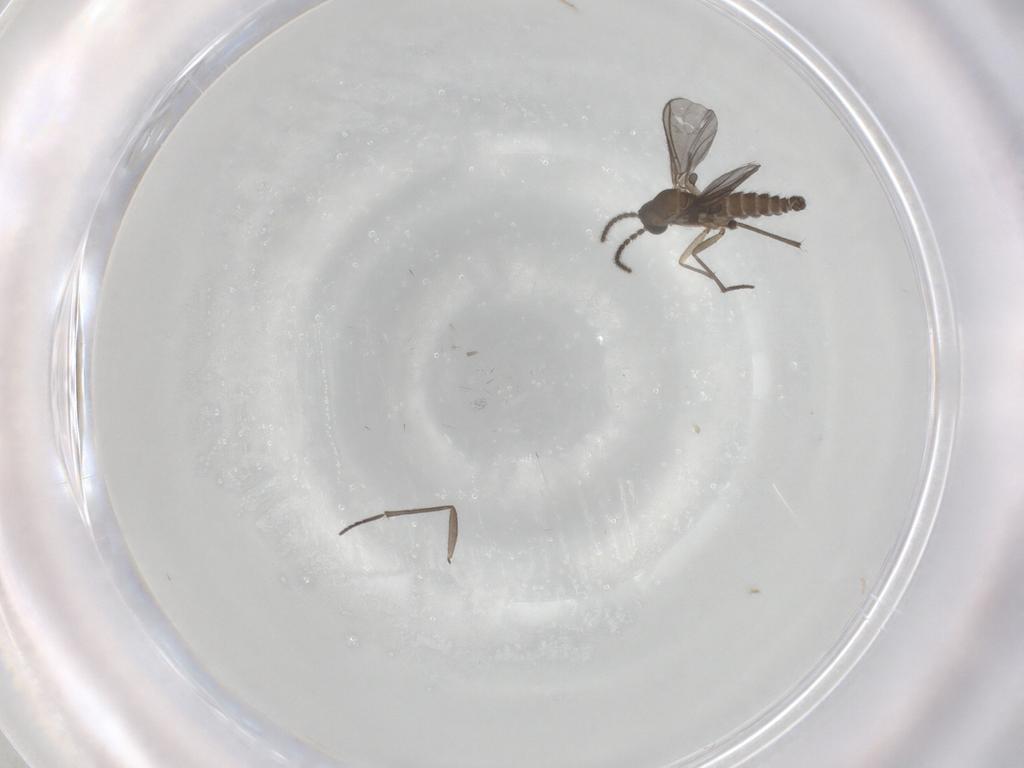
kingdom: Animalia
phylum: Arthropoda
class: Insecta
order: Diptera
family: Sciaridae
